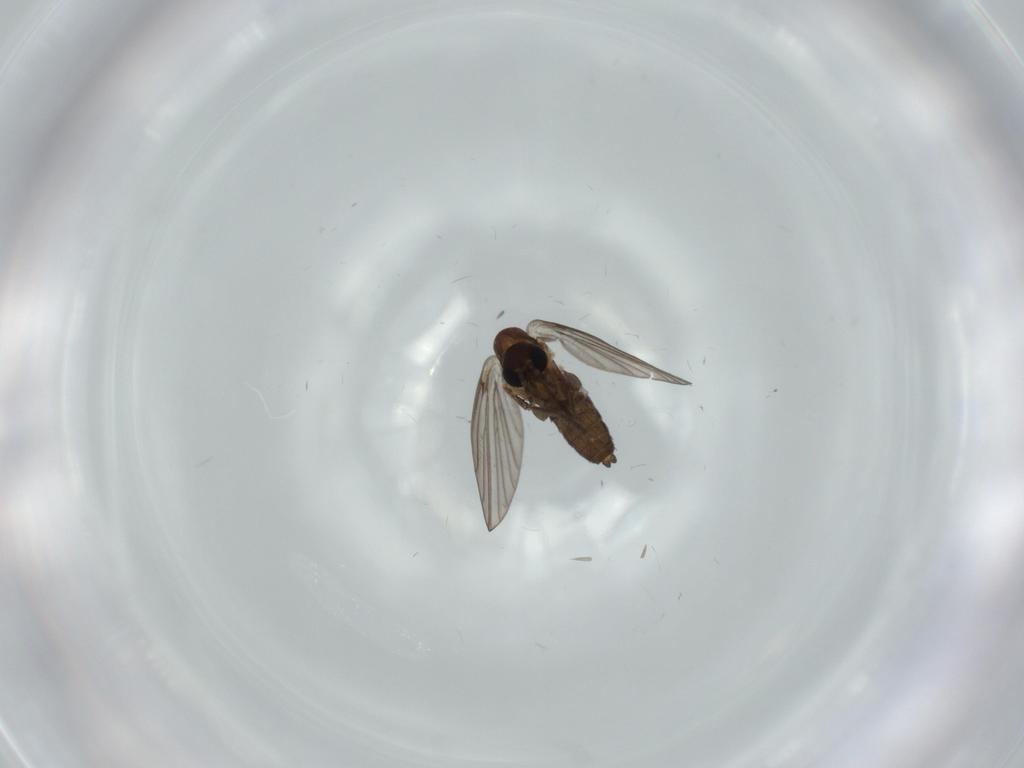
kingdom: Animalia
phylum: Arthropoda
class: Insecta
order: Diptera
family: Psychodidae
